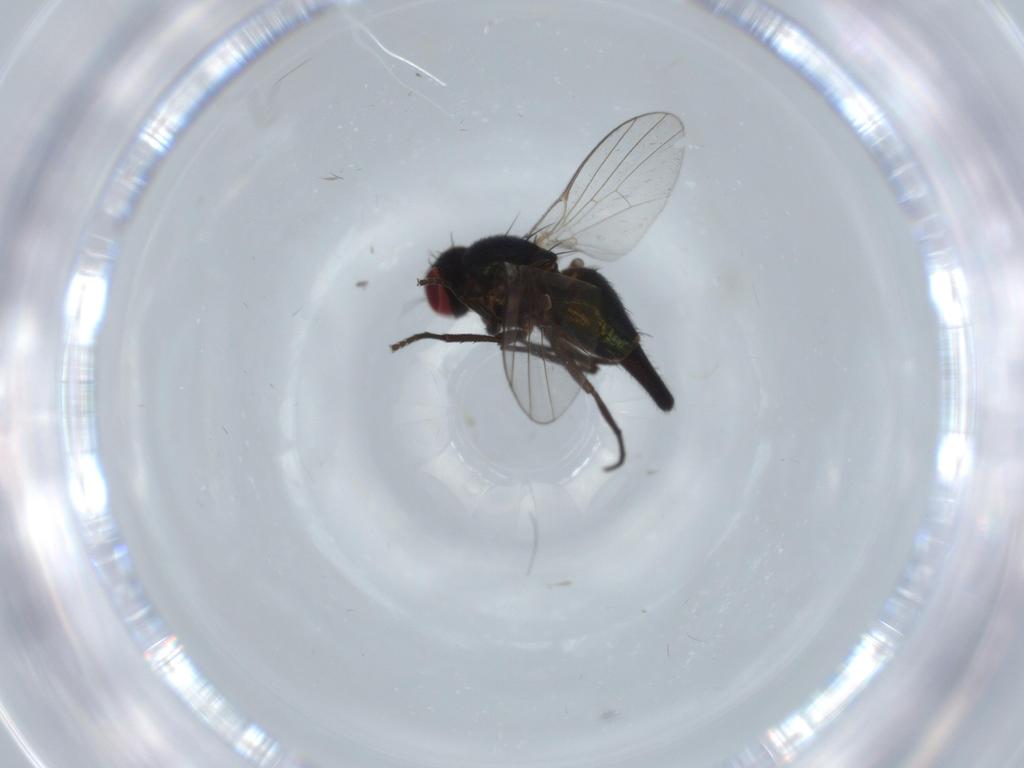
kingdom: Animalia
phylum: Arthropoda
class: Insecta
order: Diptera
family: Agromyzidae
